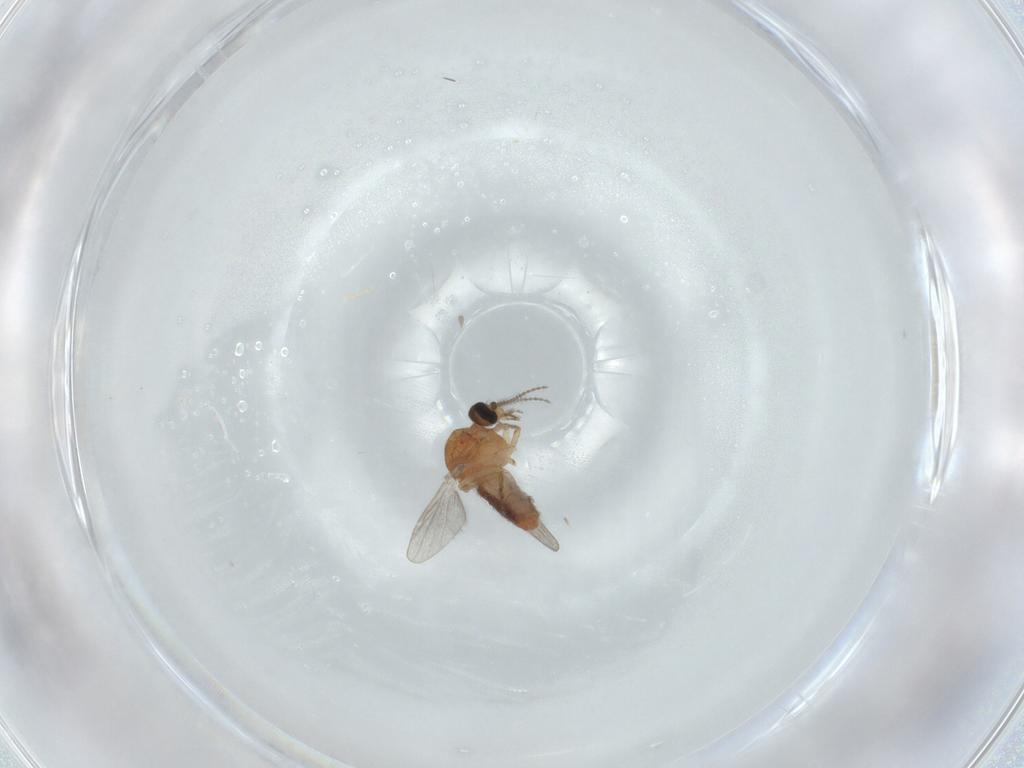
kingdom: Animalia
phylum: Arthropoda
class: Insecta
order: Diptera
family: Ceratopogonidae
